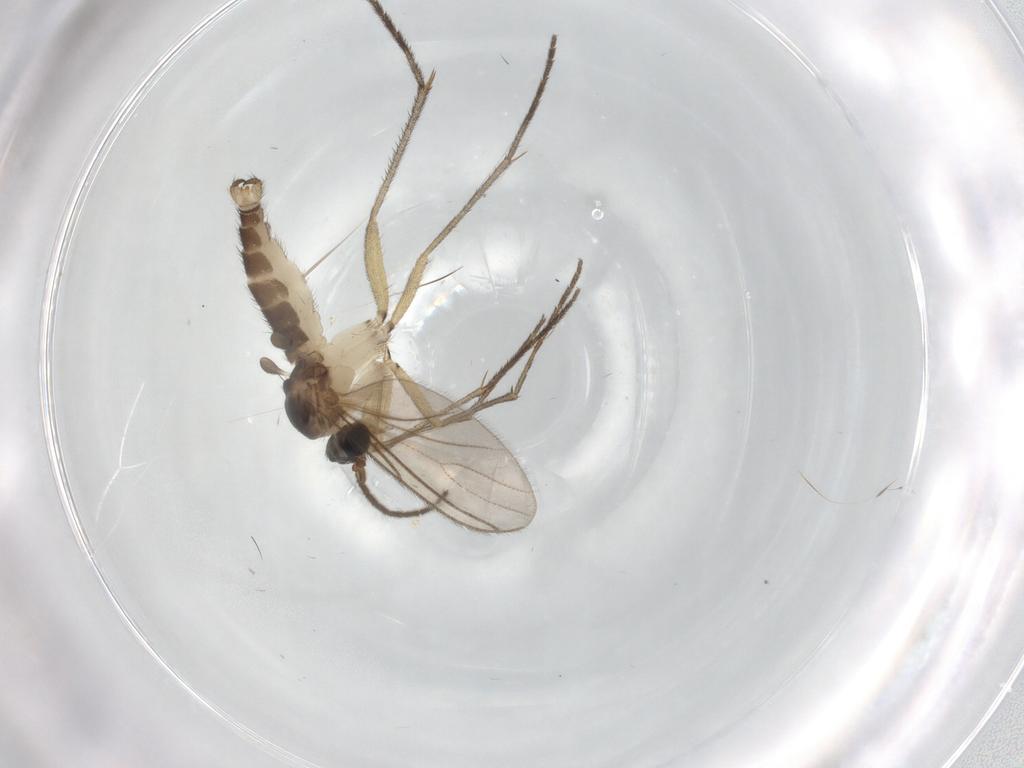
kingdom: Animalia
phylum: Arthropoda
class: Insecta
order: Diptera
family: Sciaridae
